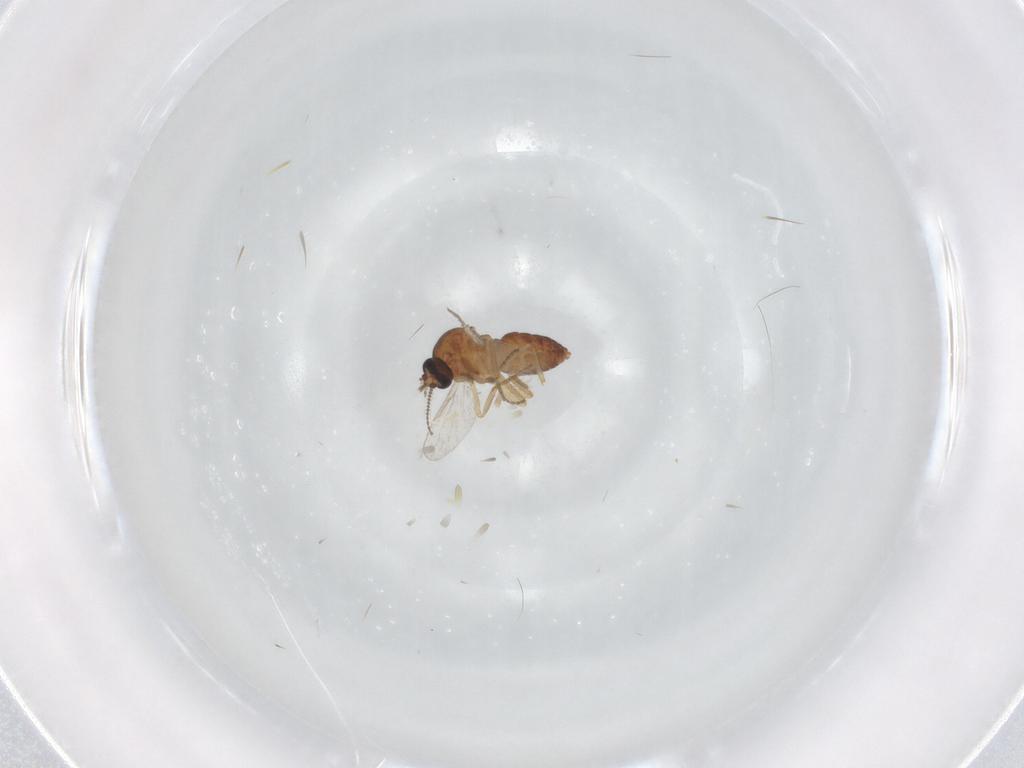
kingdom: Animalia
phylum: Arthropoda
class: Insecta
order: Diptera
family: Ceratopogonidae
